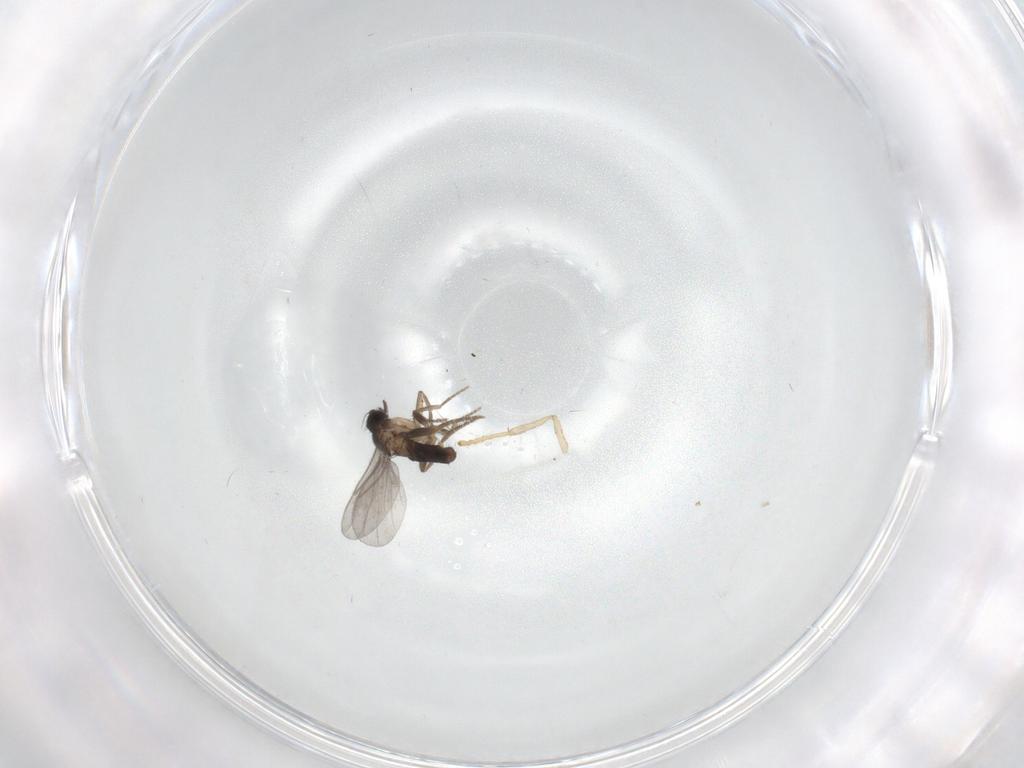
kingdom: Animalia
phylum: Arthropoda
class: Insecta
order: Diptera
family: Psychodidae
